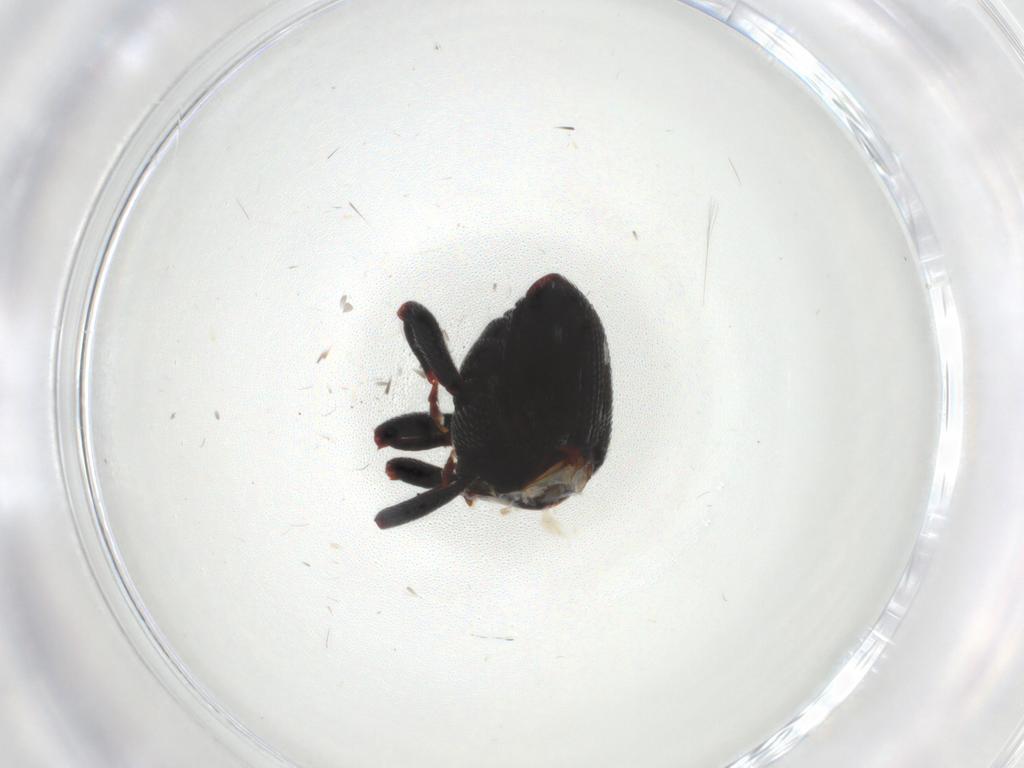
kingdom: Animalia
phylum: Arthropoda
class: Insecta
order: Coleoptera
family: Curculionidae
